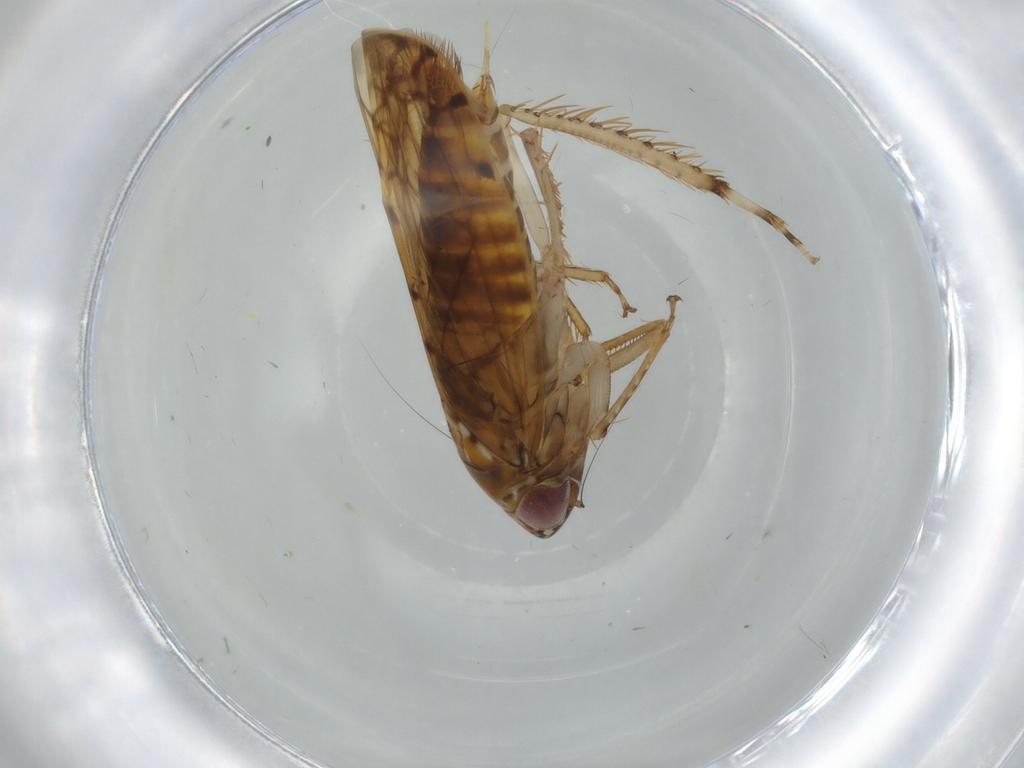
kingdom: Animalia
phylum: Arthropoda
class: Insecta
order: Hemiptera
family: Cicadellidae
